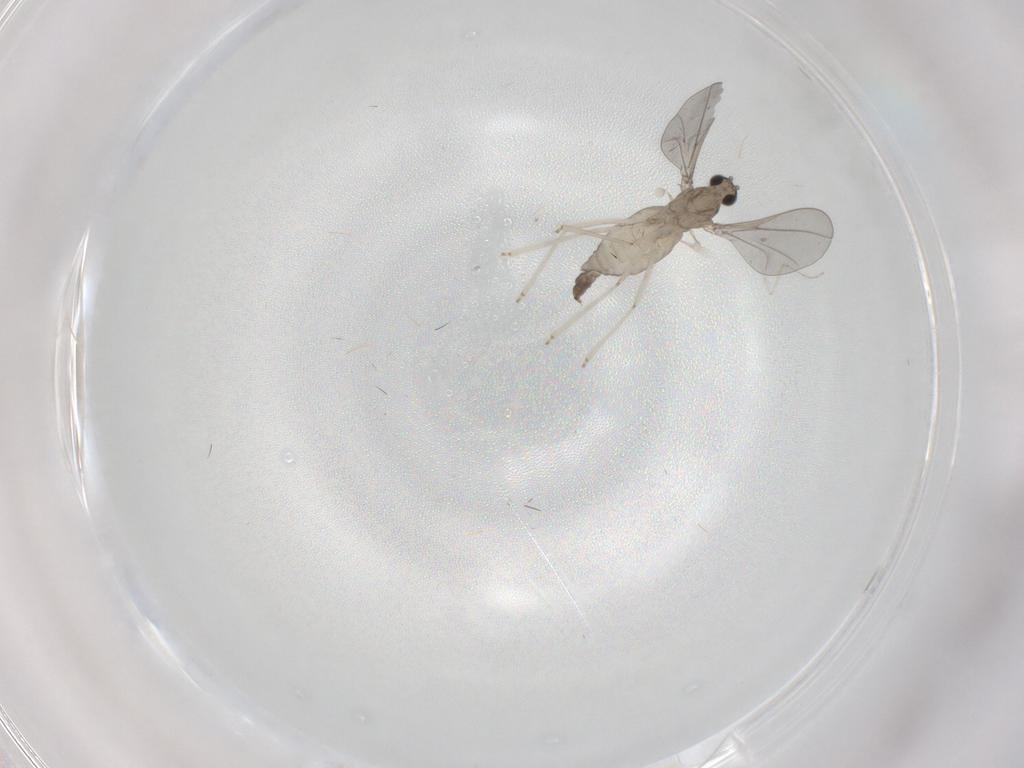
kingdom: Animalia
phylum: Arthropoda
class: Insecta
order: Diptera
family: Cecidomyiidae
